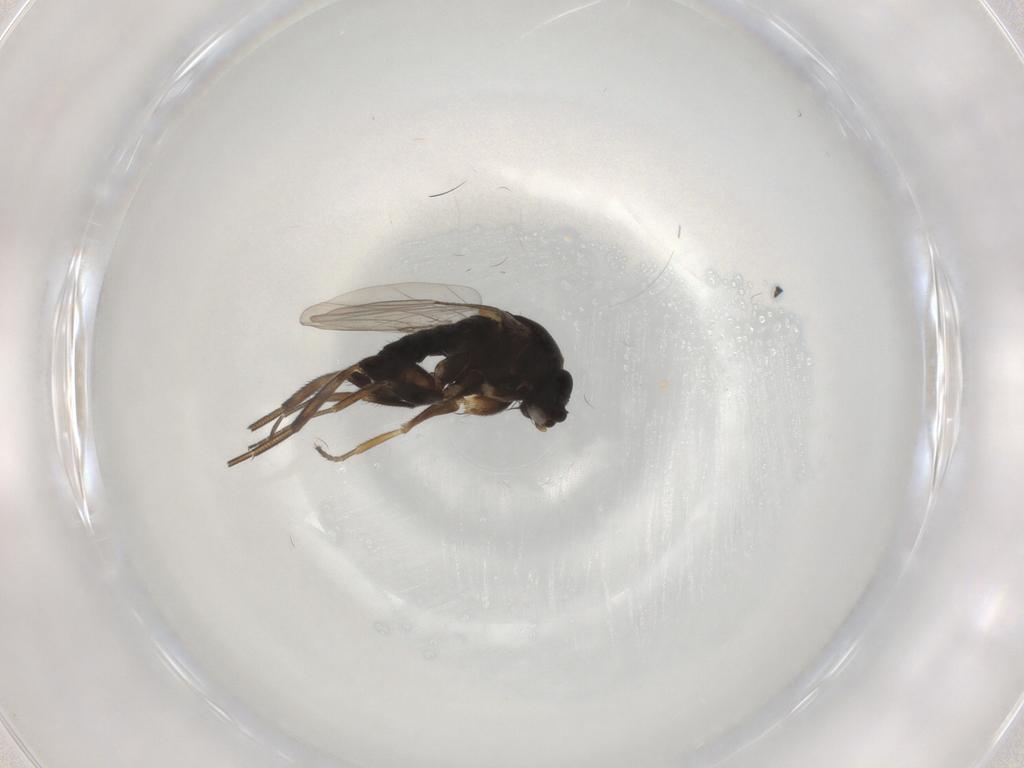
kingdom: Animalia
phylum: Arthropoda
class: Insecta
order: Diptera
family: Phoridae
